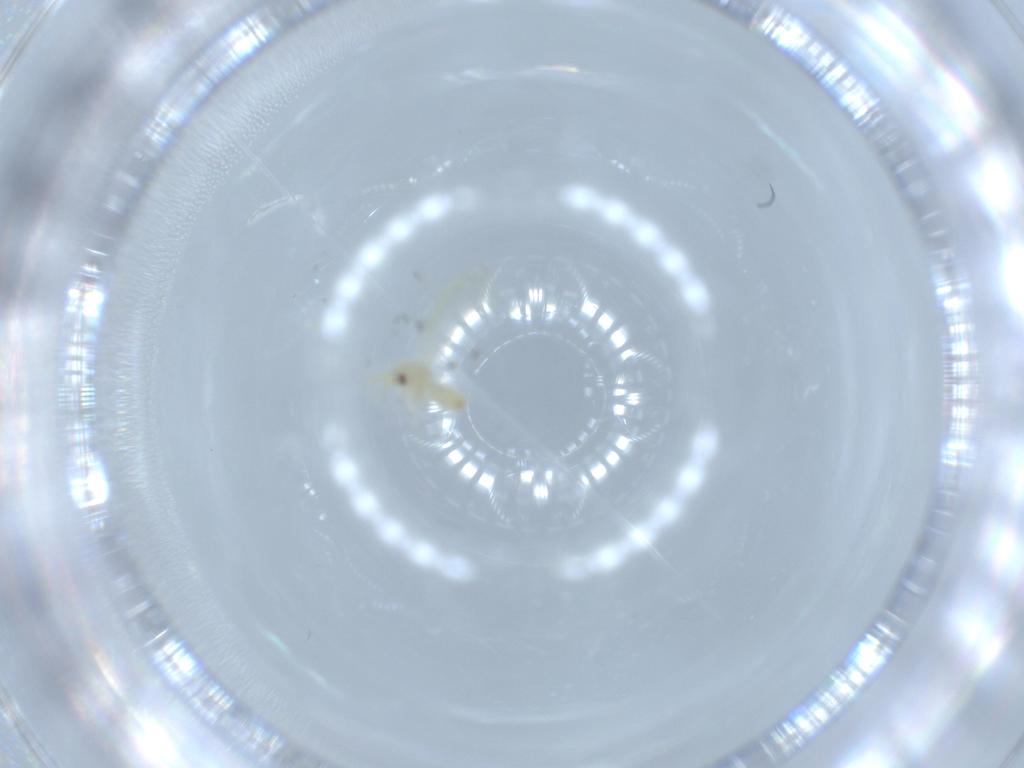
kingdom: Animalia
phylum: Arthropoda
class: Insecta
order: Hemiptera
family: Aleyrodidae
